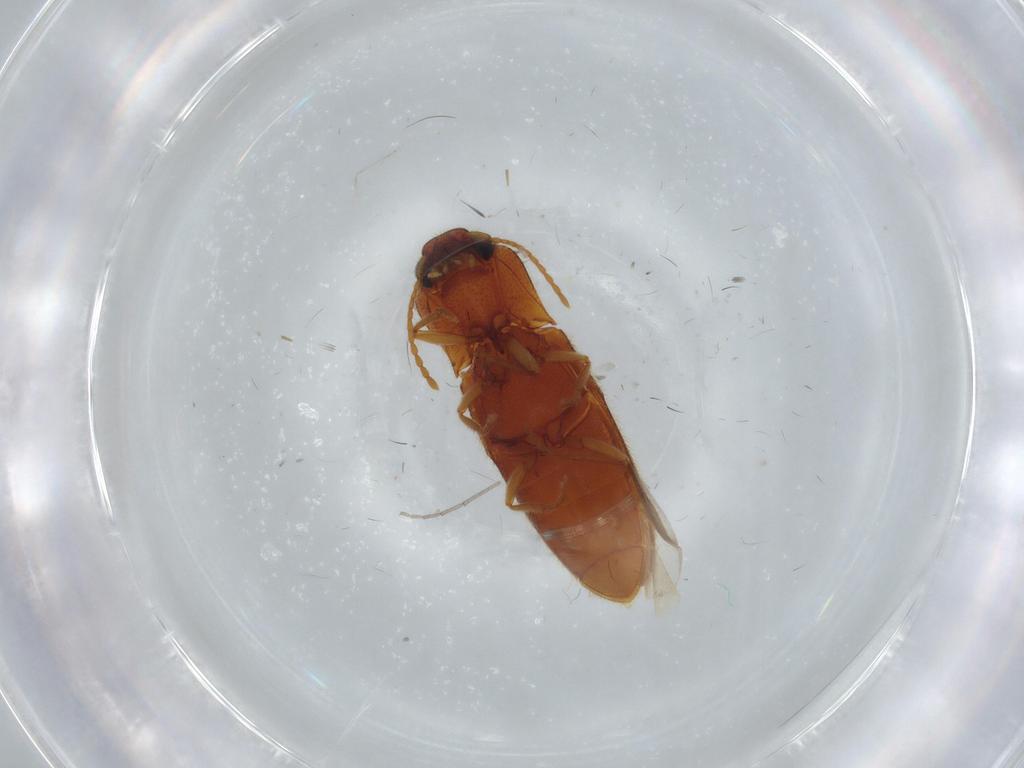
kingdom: Animalia
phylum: Arthropoda
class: Insecta
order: Coleoptera
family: Elateridae
